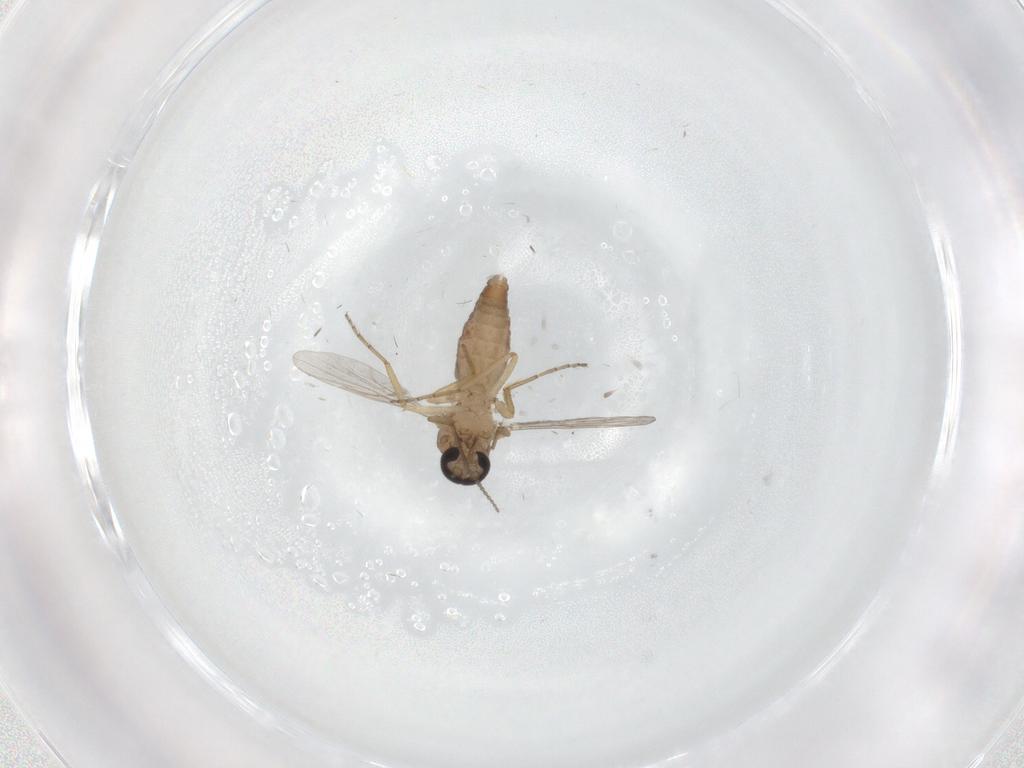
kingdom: Animalia
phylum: Arthropoda
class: Insecta
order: Diptera
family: Ceratopogonidae
